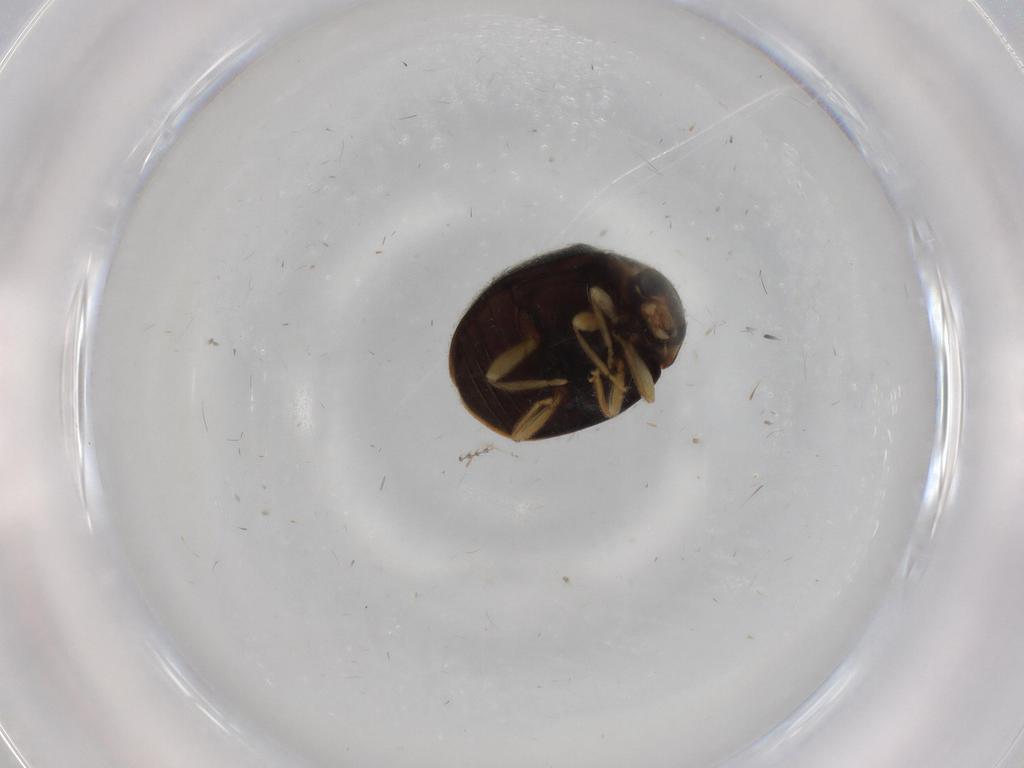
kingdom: Animalia
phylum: Arthropoda
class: Insecta
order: Coleoptera
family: Coccinellidae
